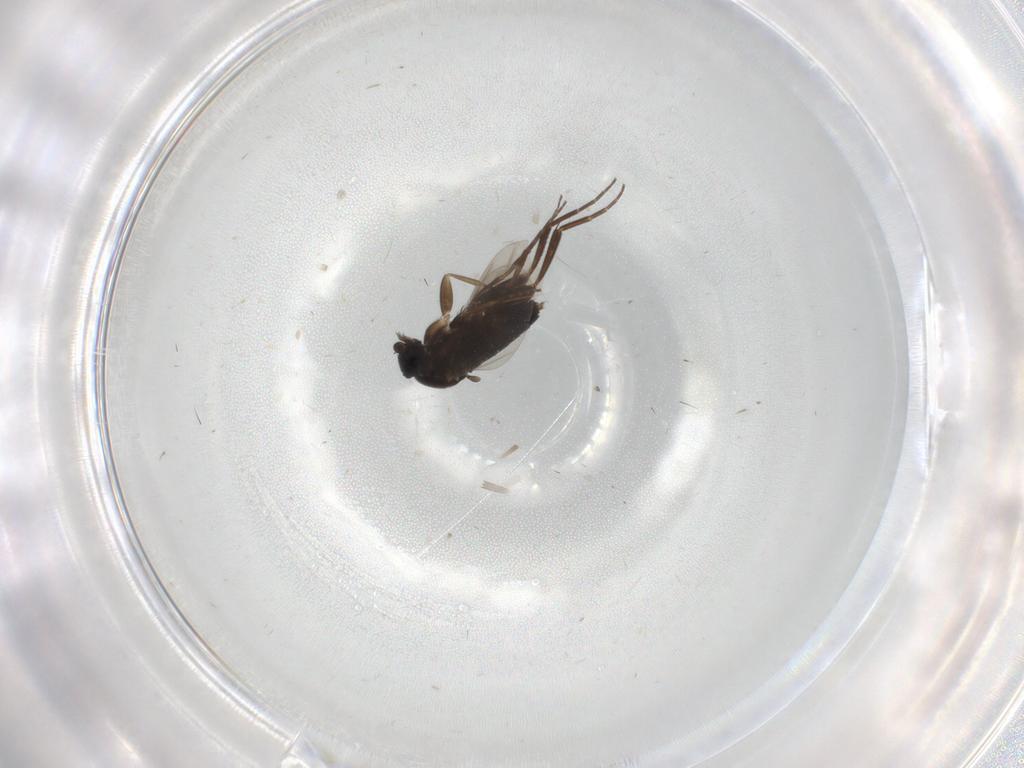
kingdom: Animalia
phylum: Arthropoda
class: Insecta
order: Diptera
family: Phoridae
